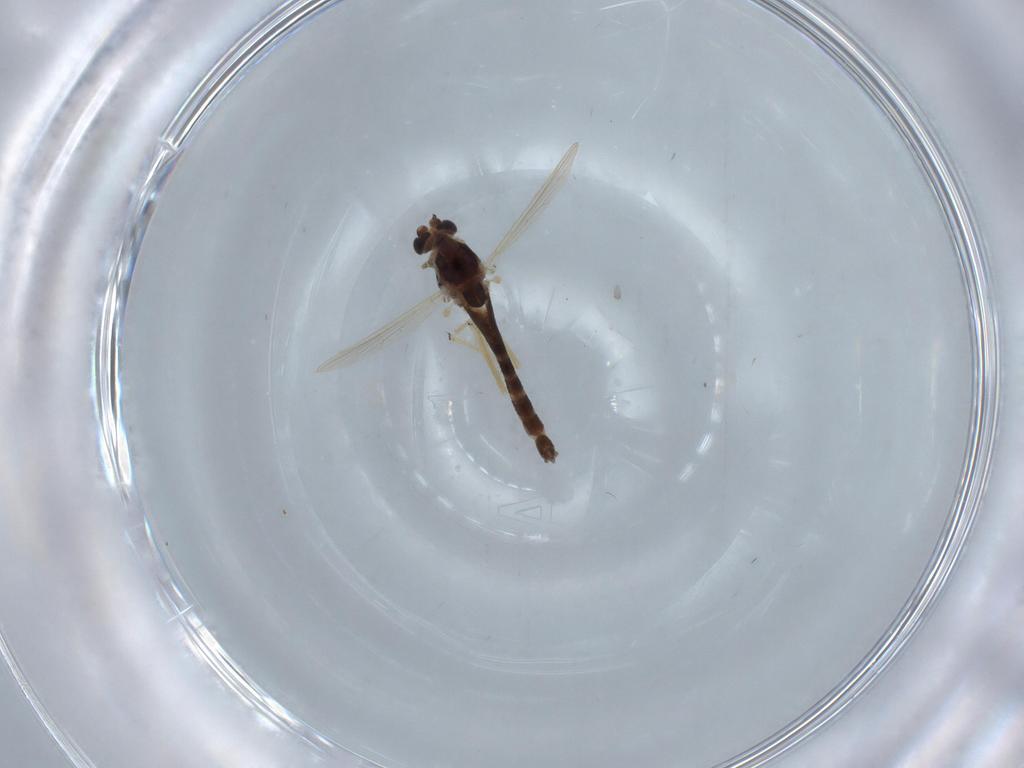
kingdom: Animalia
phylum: Arthropoda
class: Insecta
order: Diptera
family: Chironomidae
